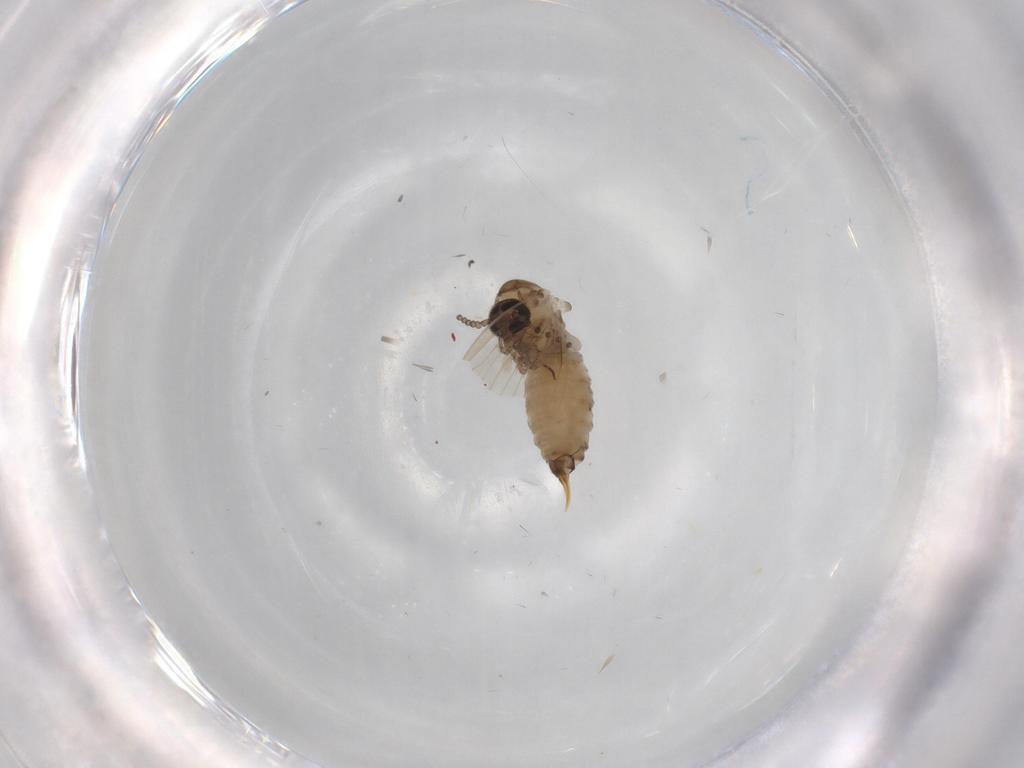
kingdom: Animalia
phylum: Arthropoda
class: Insecta
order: Diptera
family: Psychodidae
